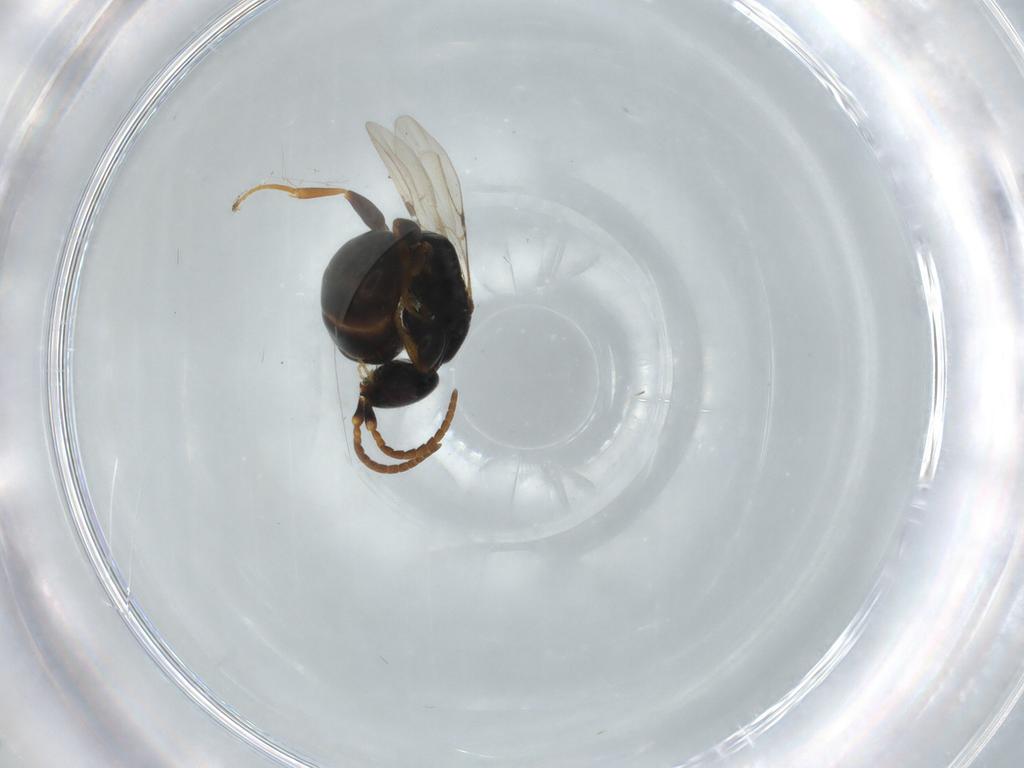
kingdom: Animalia
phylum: Arthropoda
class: Insecta
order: Hymenoptera
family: Bethylidae
